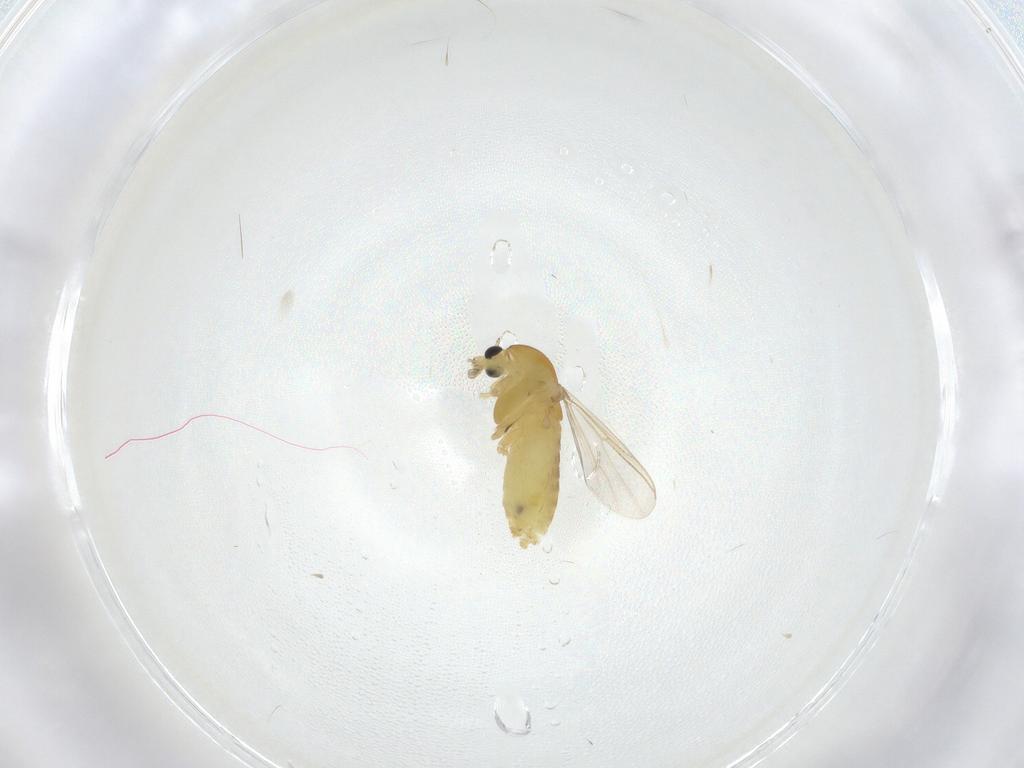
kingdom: Animalia
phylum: Arthropoda
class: Insecta
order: Diptera
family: Chironomidae
